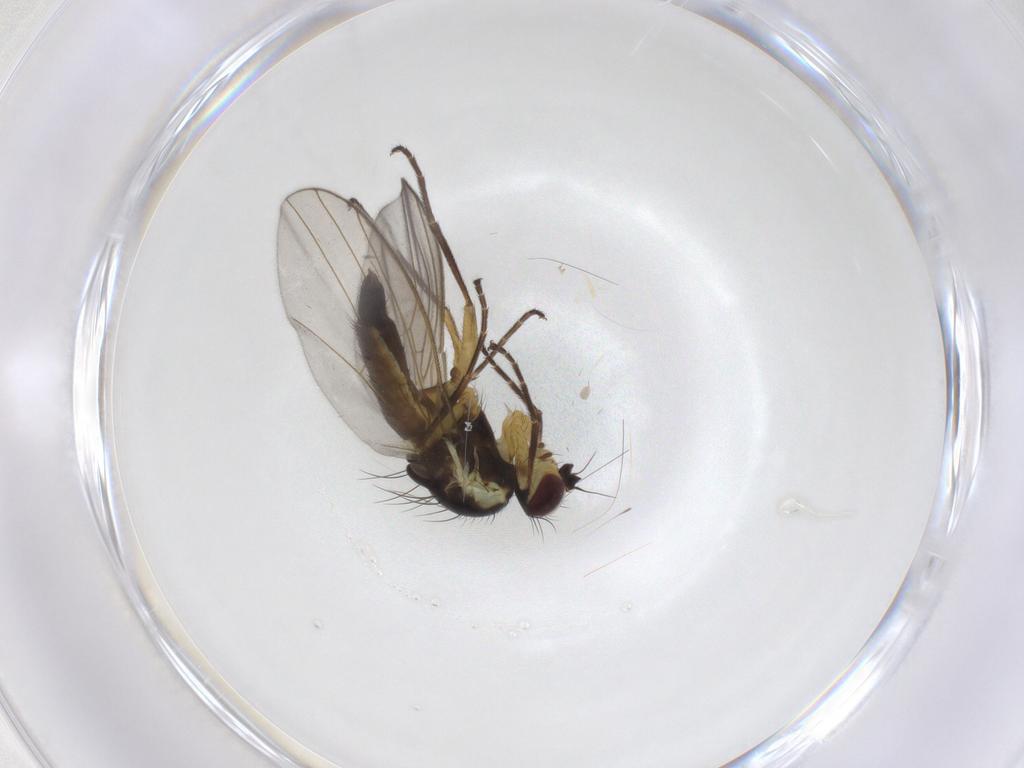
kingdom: Animalia
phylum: Arthropoda
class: Insecta
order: Diptera
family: Agromyzidae
